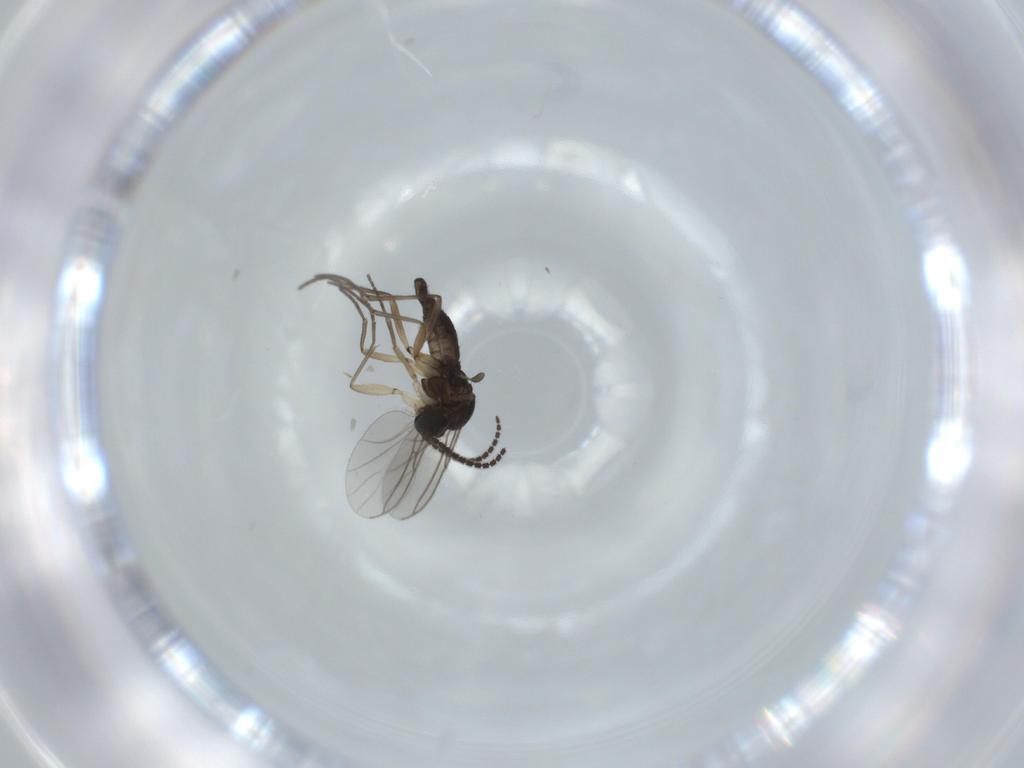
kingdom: Animalia
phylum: Arthropoda
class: Insecta
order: Diptera
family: Sciaridae
